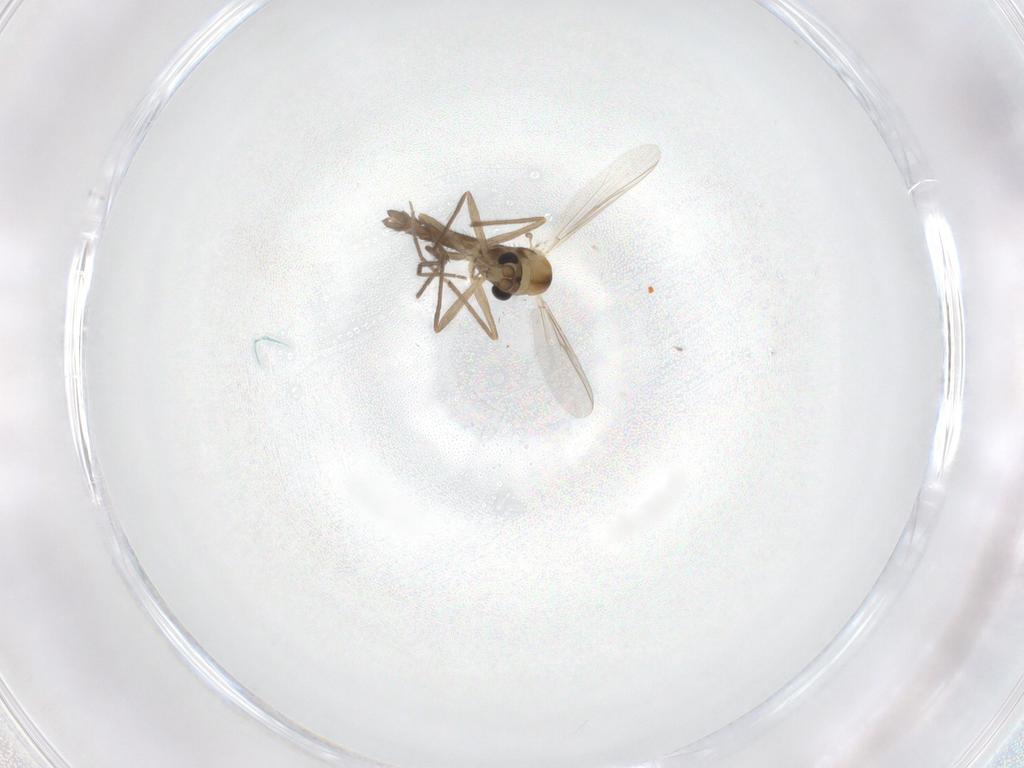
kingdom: Animalia
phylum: Arthropoda
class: Insecta
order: Diptera
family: Chironomidae
